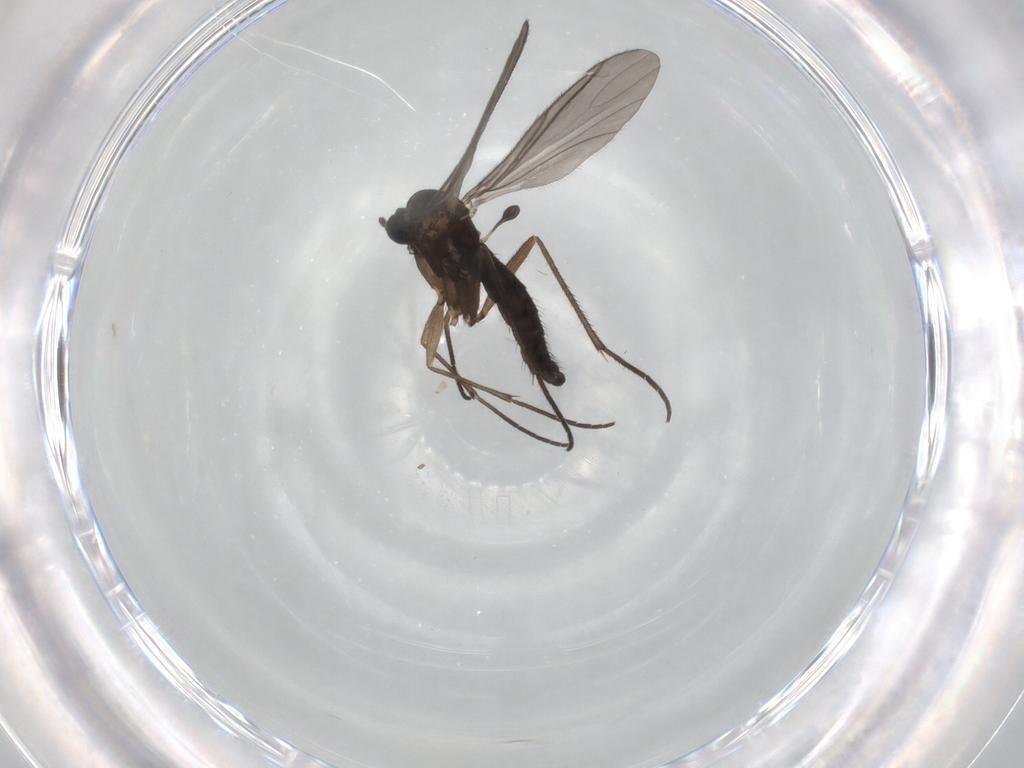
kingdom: Animalia
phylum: Arthropoda
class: Insecta
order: Diptera
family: Sciaridae
